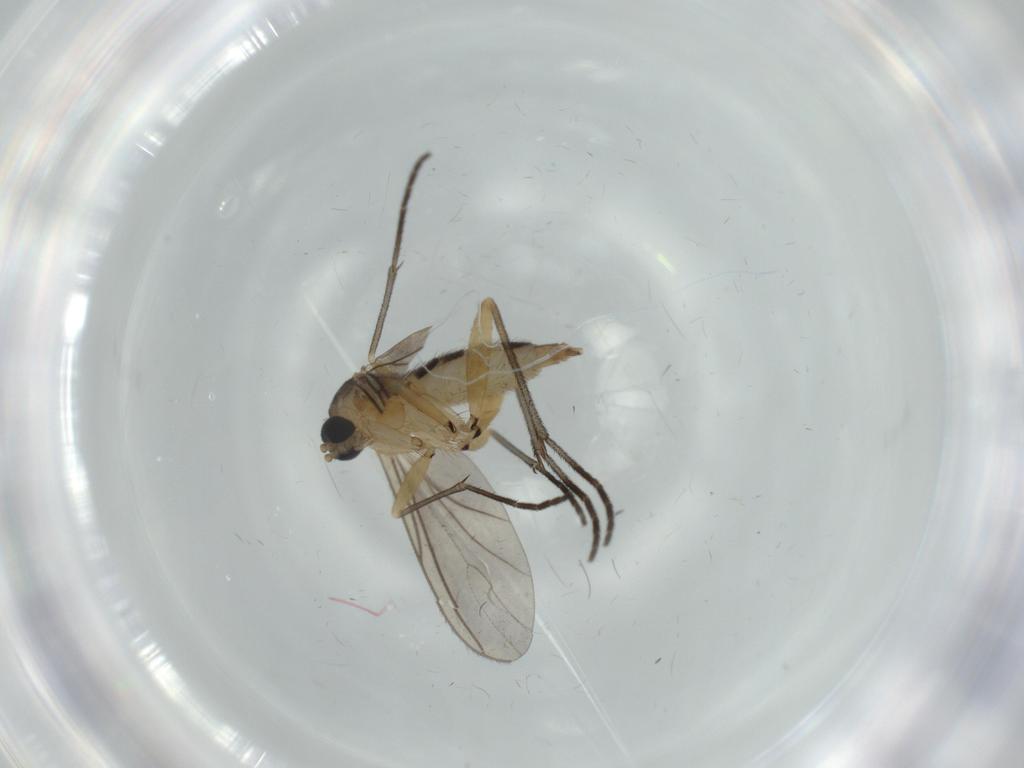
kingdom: Animalia
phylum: Arthropoda
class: Insecta
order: Diptera
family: Sciaridae
